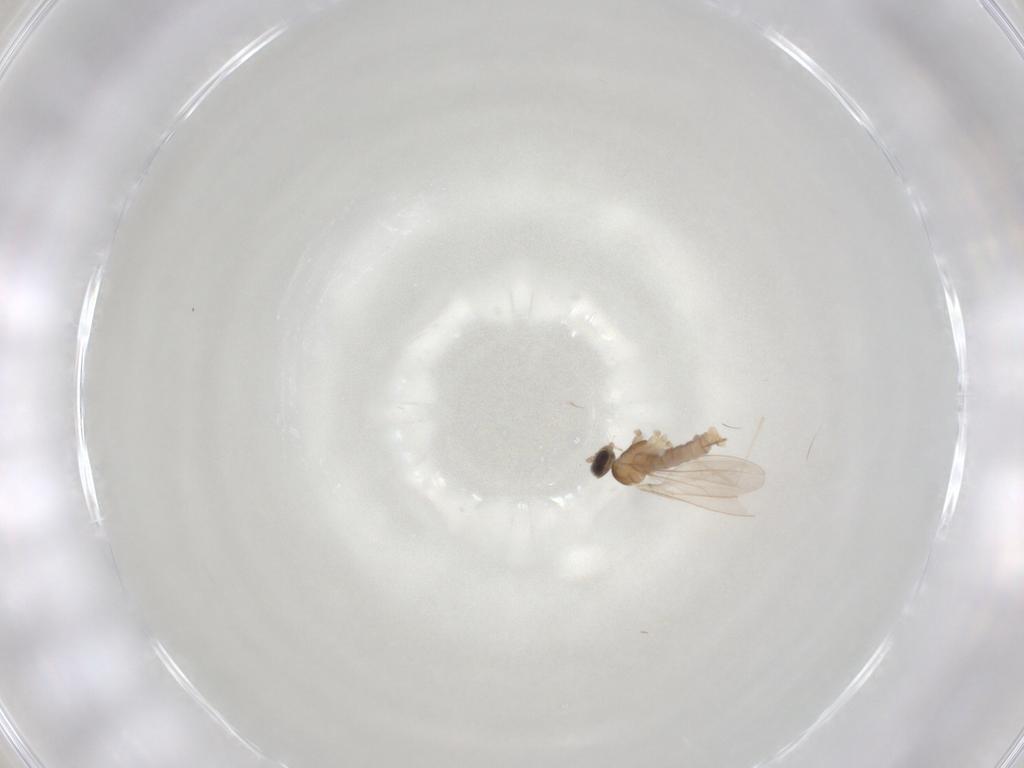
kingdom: Animalia
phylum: Arthropoda
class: Insecta
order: Diptera
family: Cecidomyiidae
